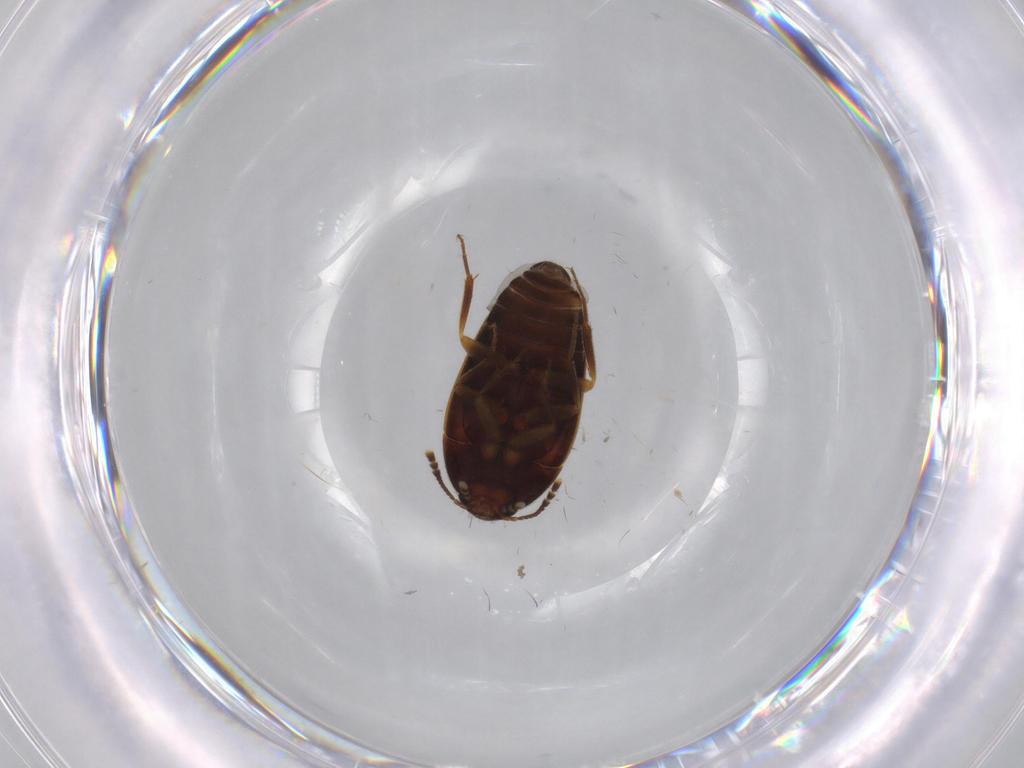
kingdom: Animalia
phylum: Arthropoda
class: Insecta
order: Coleoptera
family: Mycetophagidae
